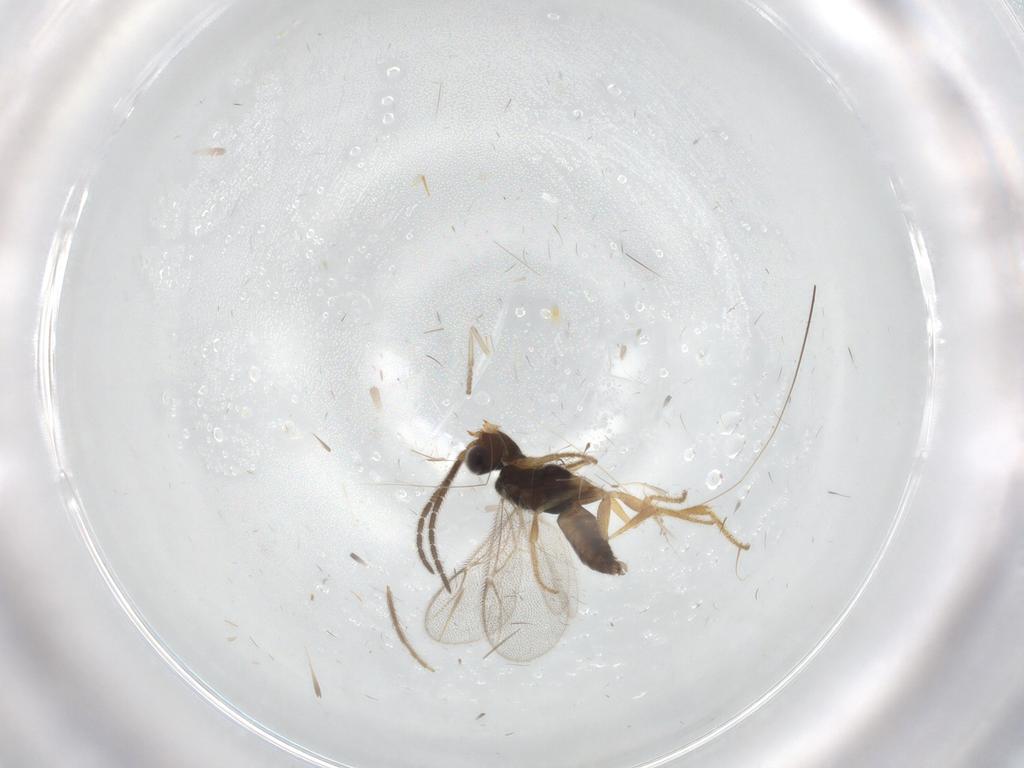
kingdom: Animalia
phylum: Arthropoda
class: Insecta
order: Hymenoptera
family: Dryinidae
